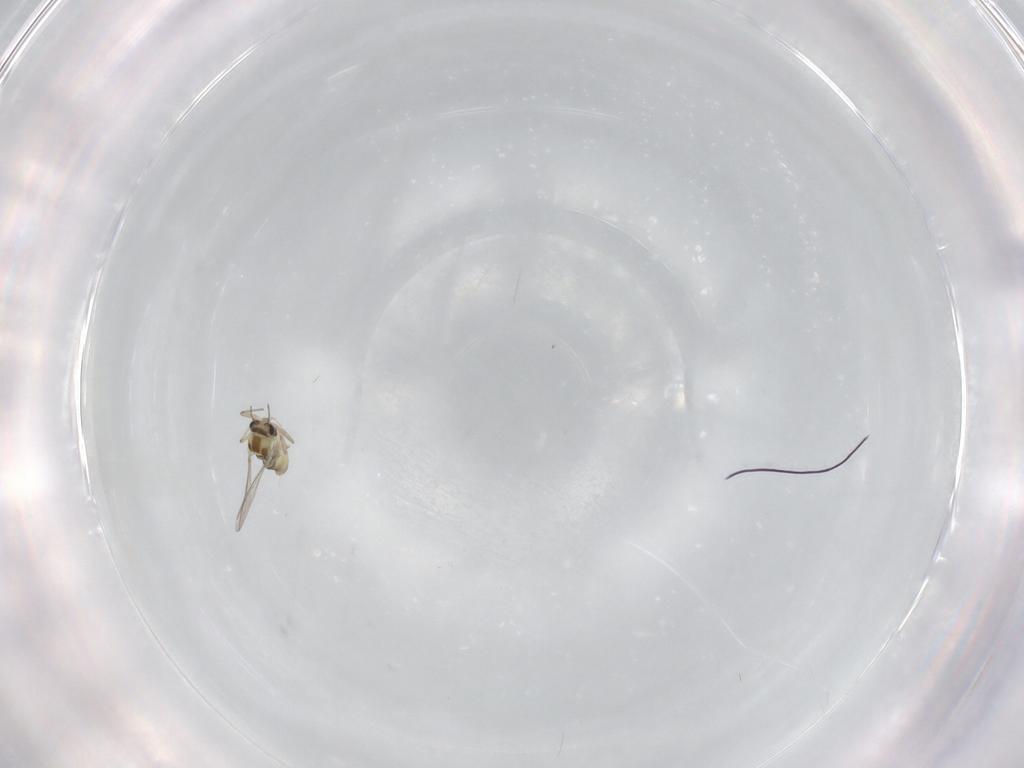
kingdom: Animalia
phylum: Arthropoda
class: Insecta
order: Diptera
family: Chironomidae
